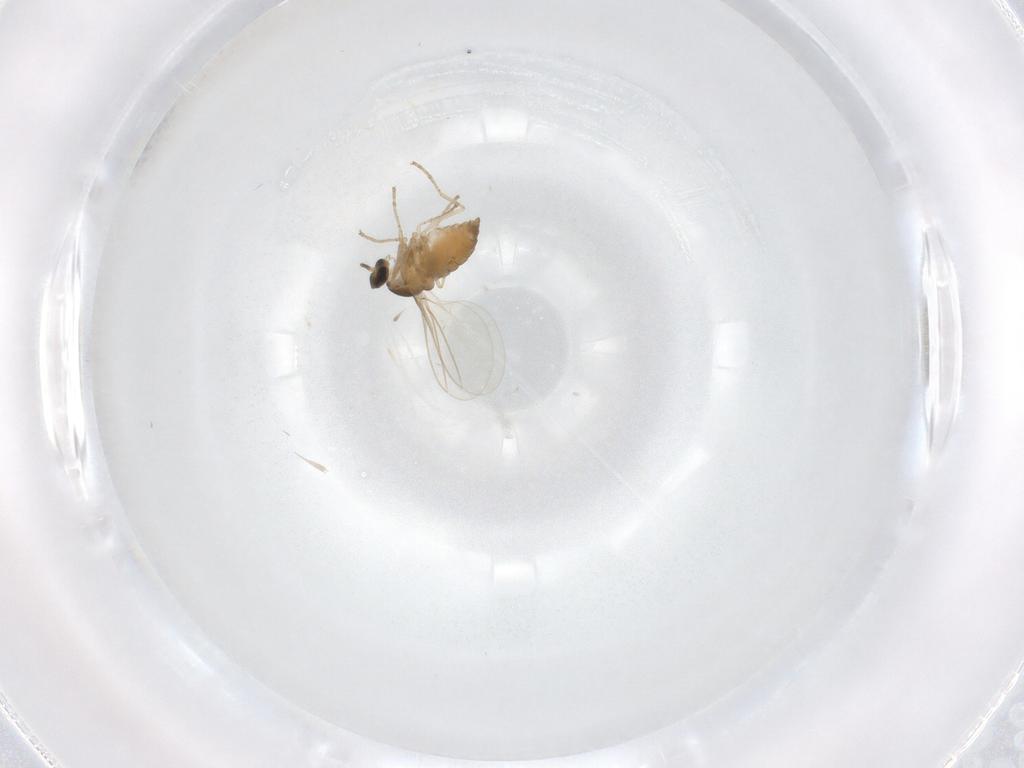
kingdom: Animalia
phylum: Arthropoda
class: Insecta
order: Diptera
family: Cecidomyiidae
